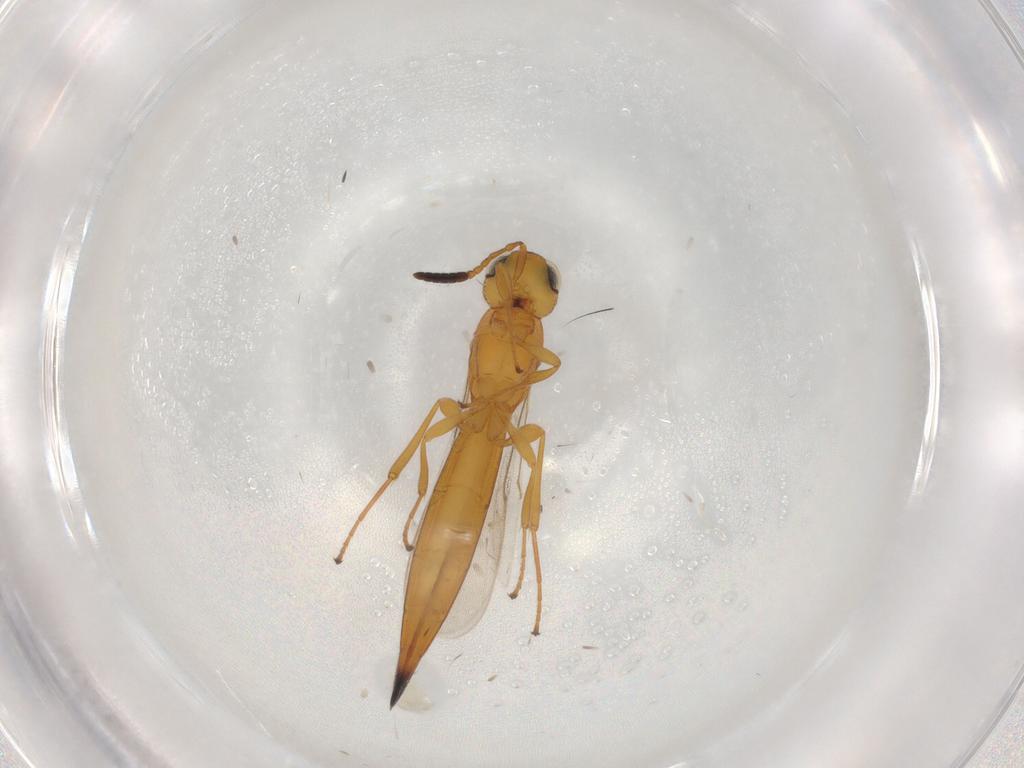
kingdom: Animalia
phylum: Arthropoda
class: Insecta
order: Hymenoptera
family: Scelionidae
